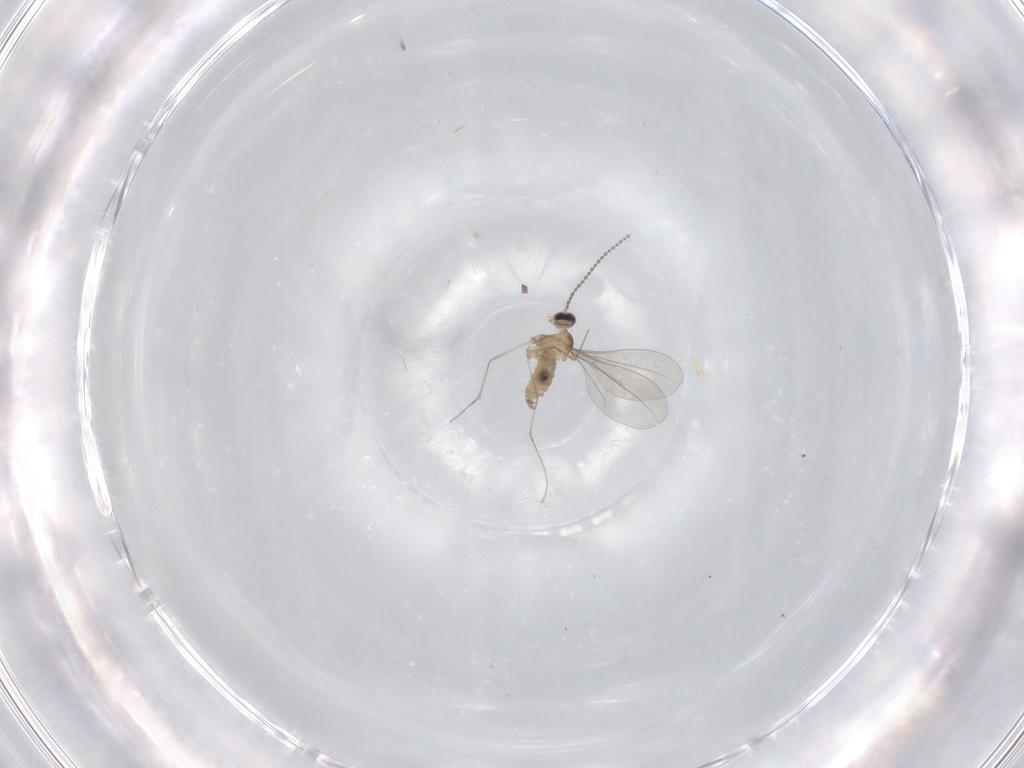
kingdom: Animalia
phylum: Arthropoda
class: Insecta
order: Diptera
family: Cecidomyiidae
